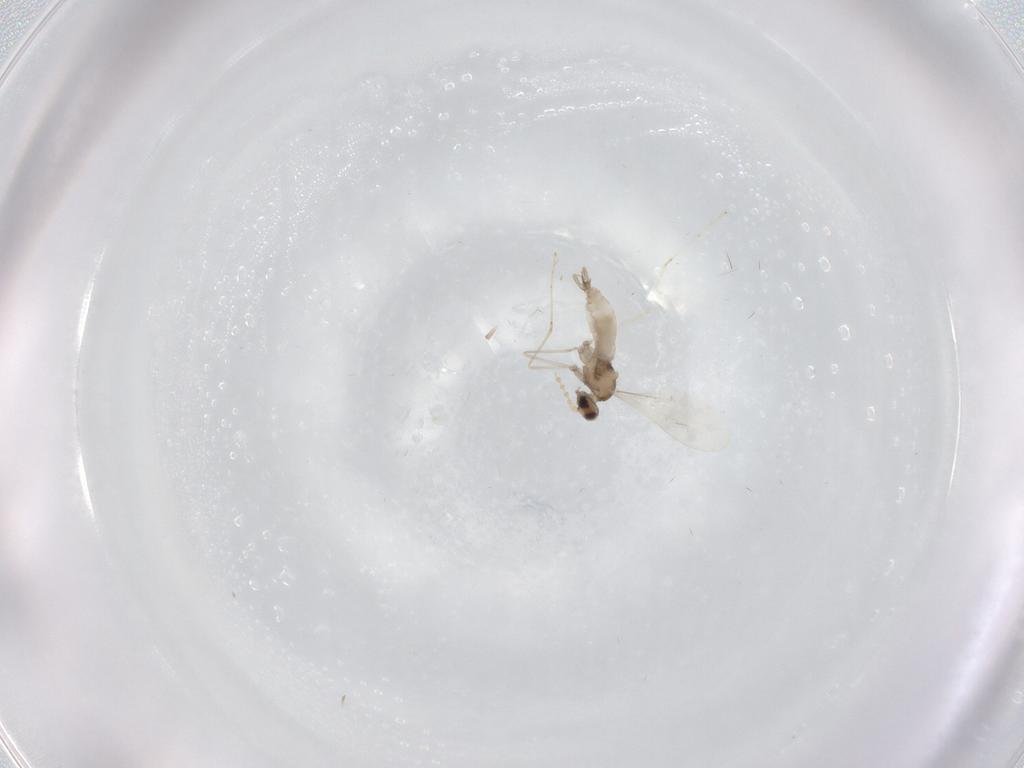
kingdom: Animalia
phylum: Arthropoda
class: Insecta
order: Diptera
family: Cecidomyiidae
